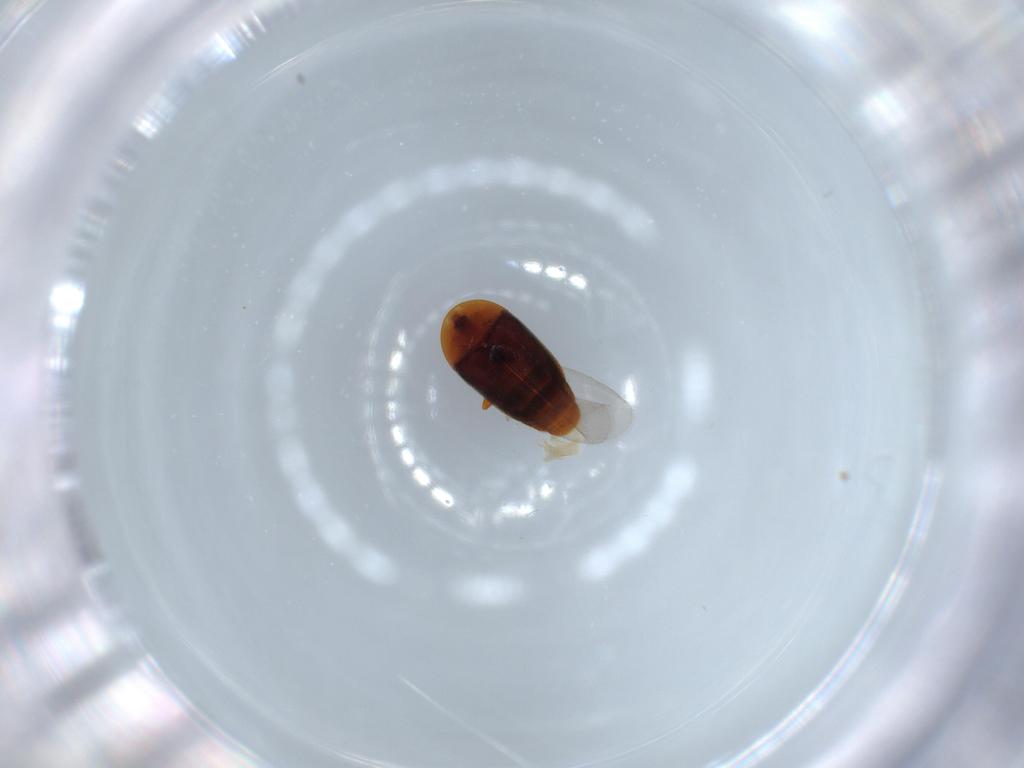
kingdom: Animalia
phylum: Arthropoda
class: Insecta
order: Coleoptera
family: Corylophidae
